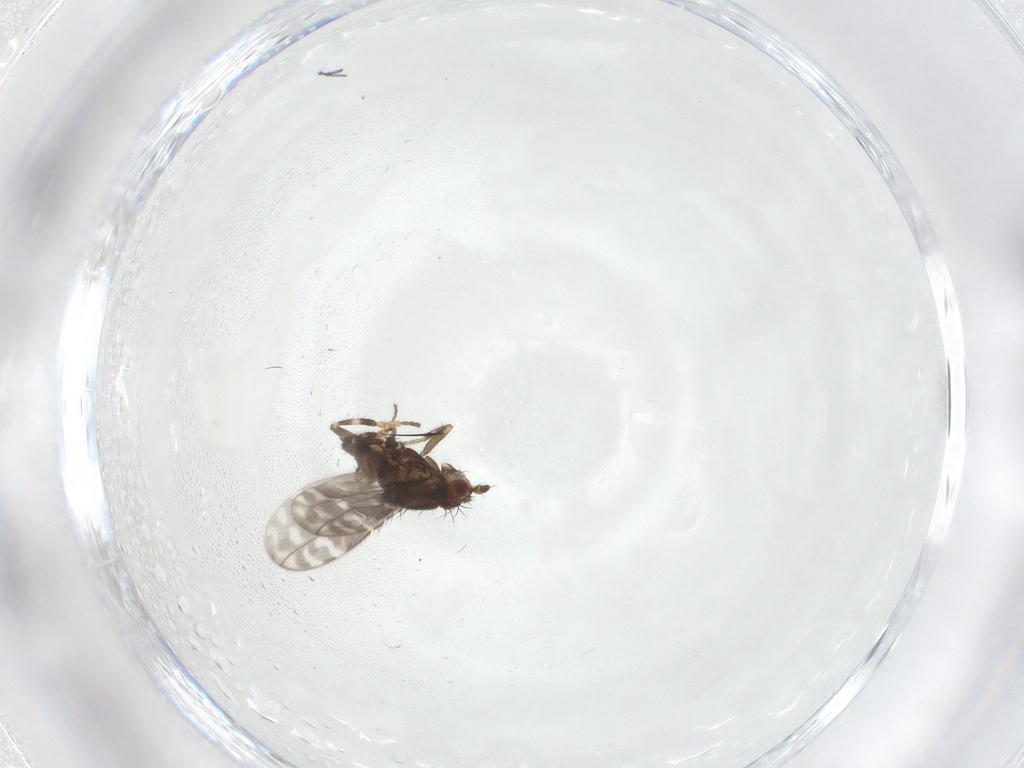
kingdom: Animalia
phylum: Arthropoda
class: Insecta
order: Diptera
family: Sphaeroceridae
